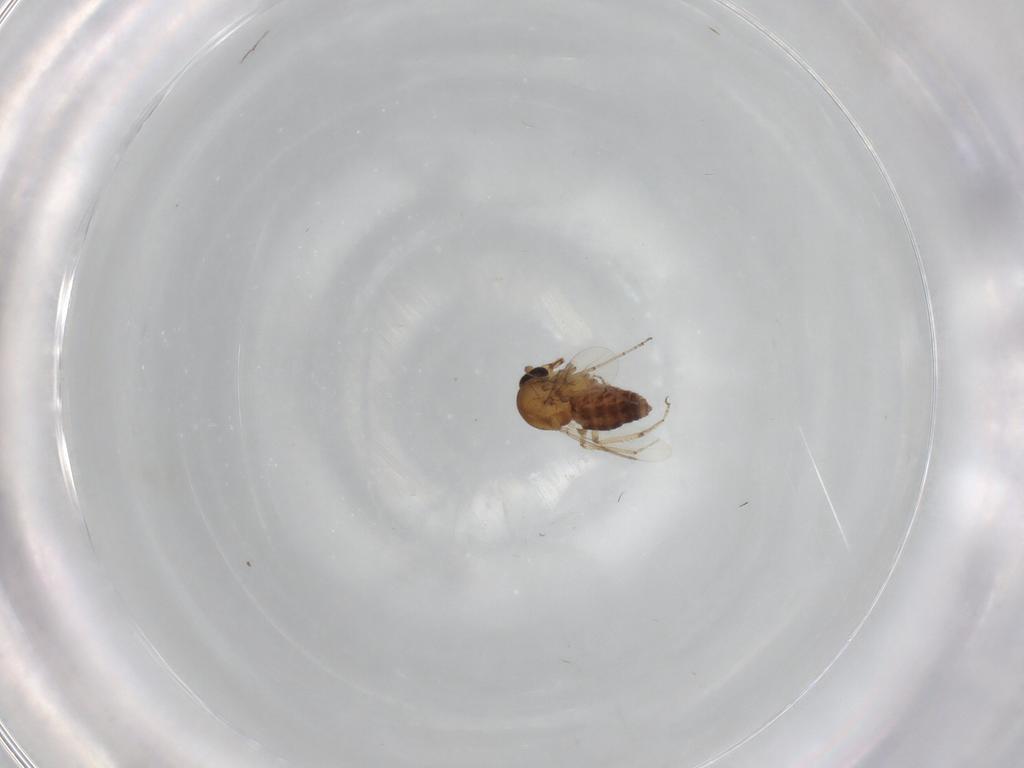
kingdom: Animalia
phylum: Arthropoda
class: Insecta
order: Diptera
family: Ceratopogonidae
